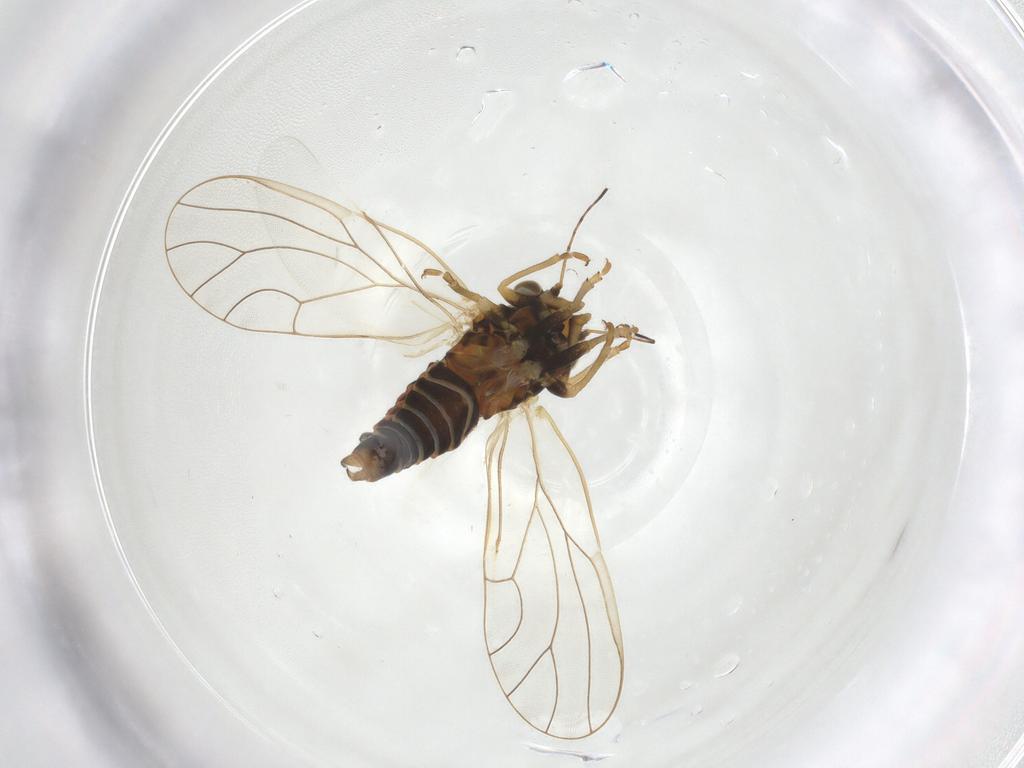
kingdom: Animalia
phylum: Arthropoda
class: Insecta
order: Hemiptera
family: Psyllidae
